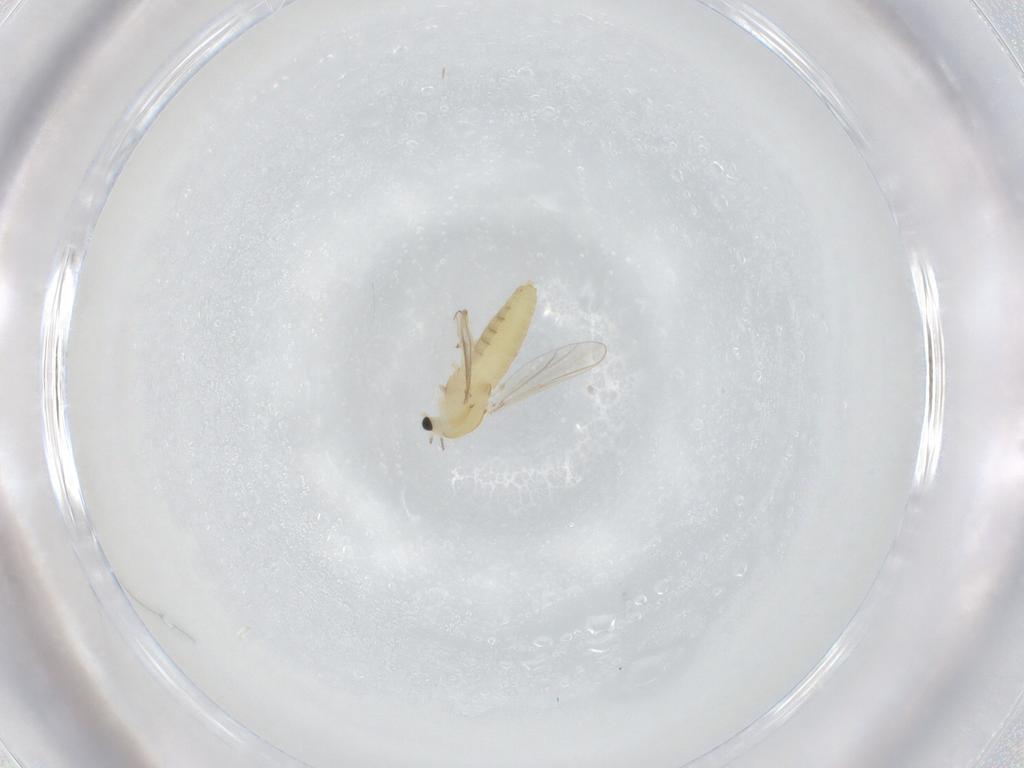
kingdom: Animalia
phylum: Arthropoda
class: Insecta
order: Diptera
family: Chironomidae
